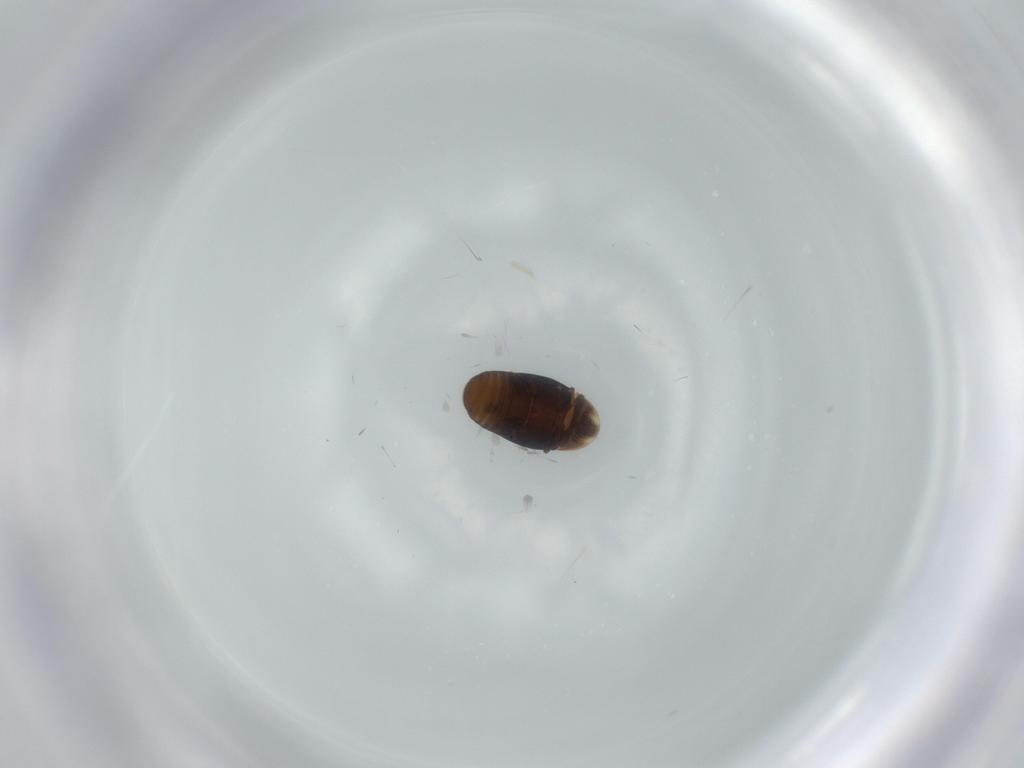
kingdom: Animalia
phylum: Arthropoda
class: Insecta
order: Coleoptera
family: Corylophidae
